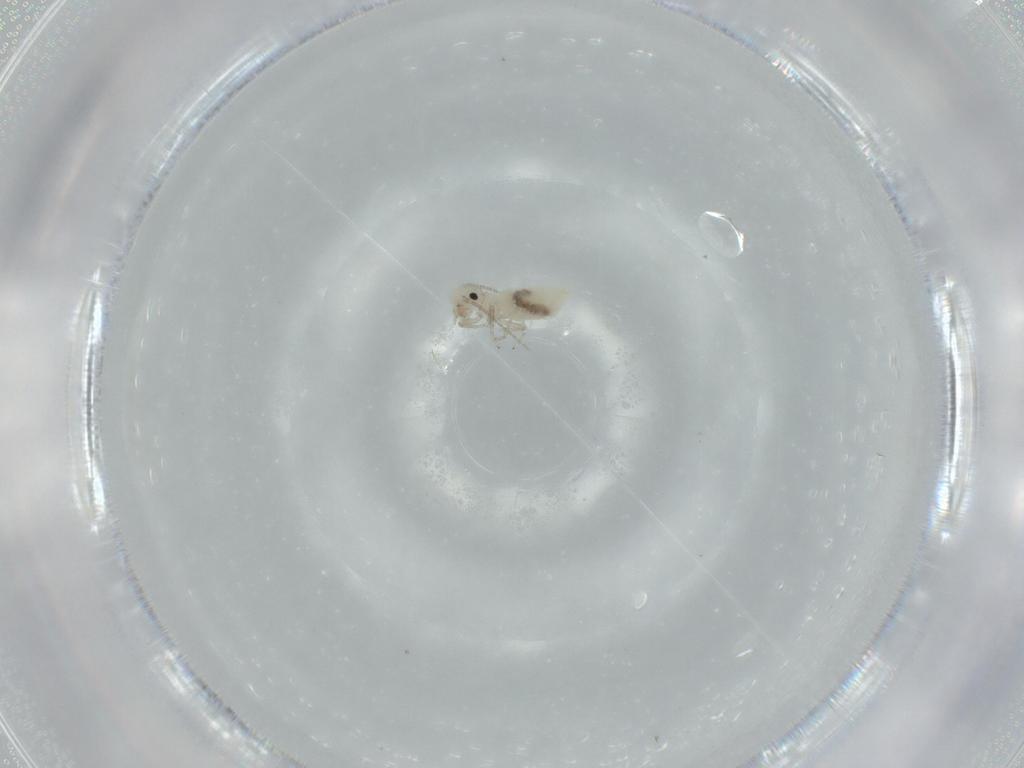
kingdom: Animalia
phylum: Arthropoda
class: Insecta
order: Psocodea
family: Caeciliusidae
